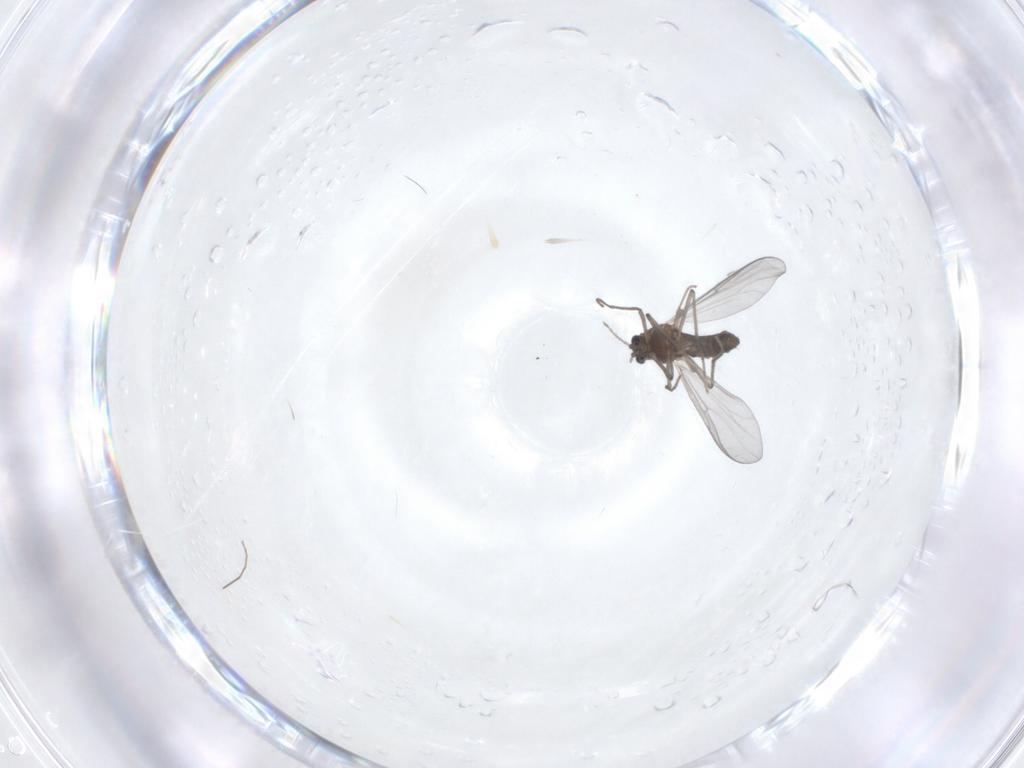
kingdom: Animalia
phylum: Arthropoda
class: Insecta
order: Diptera
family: Chironomidae
